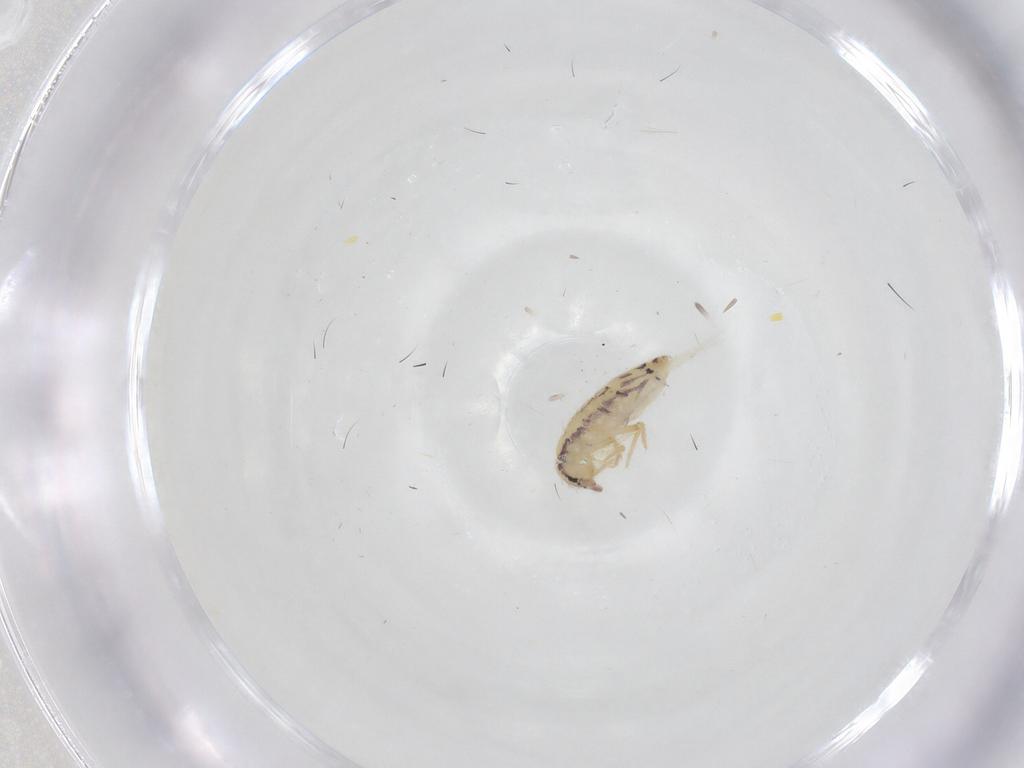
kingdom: Animalia
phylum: Arthropoda
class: Collembola
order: Entomobryomorpha
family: Entomobryidae
